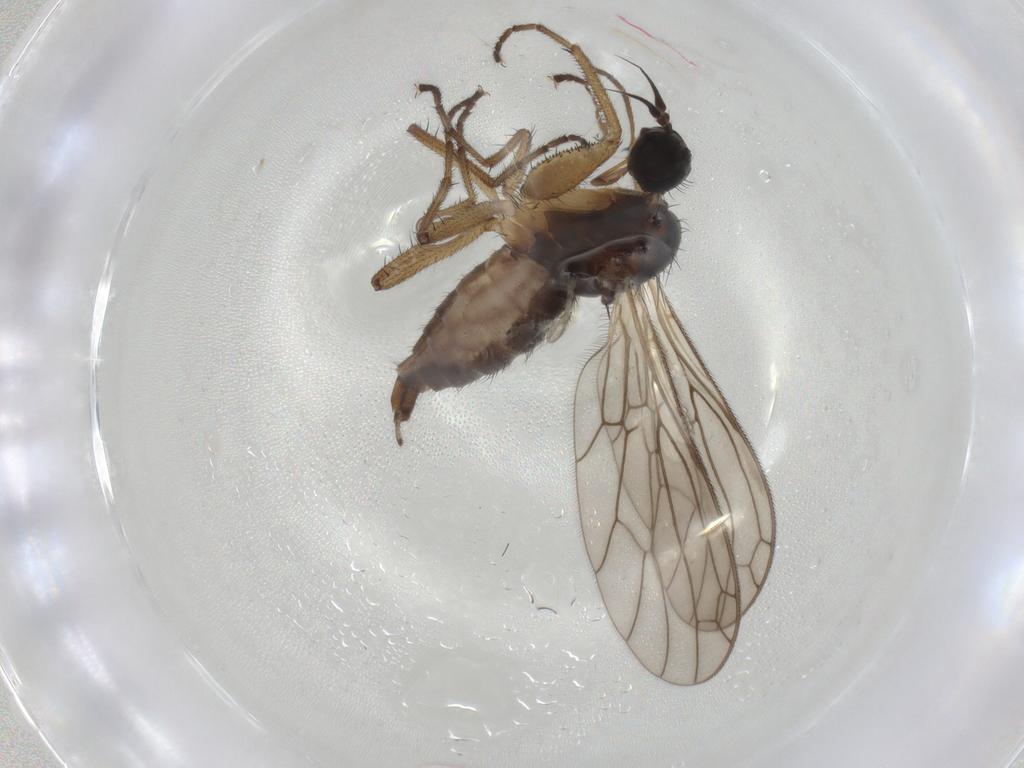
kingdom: Animalia
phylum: Arthropoda
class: Insecta
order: Diptera
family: Empididae
